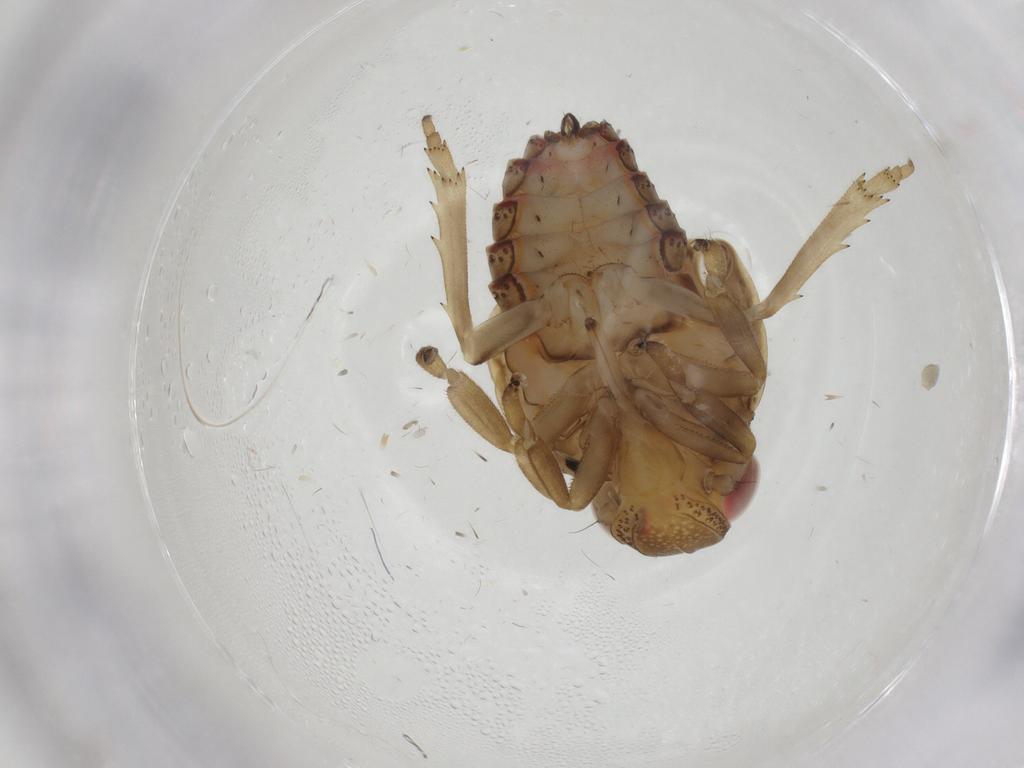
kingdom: Animalia
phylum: Arthropoda
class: Insecta
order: Hemiptera
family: Issidae
